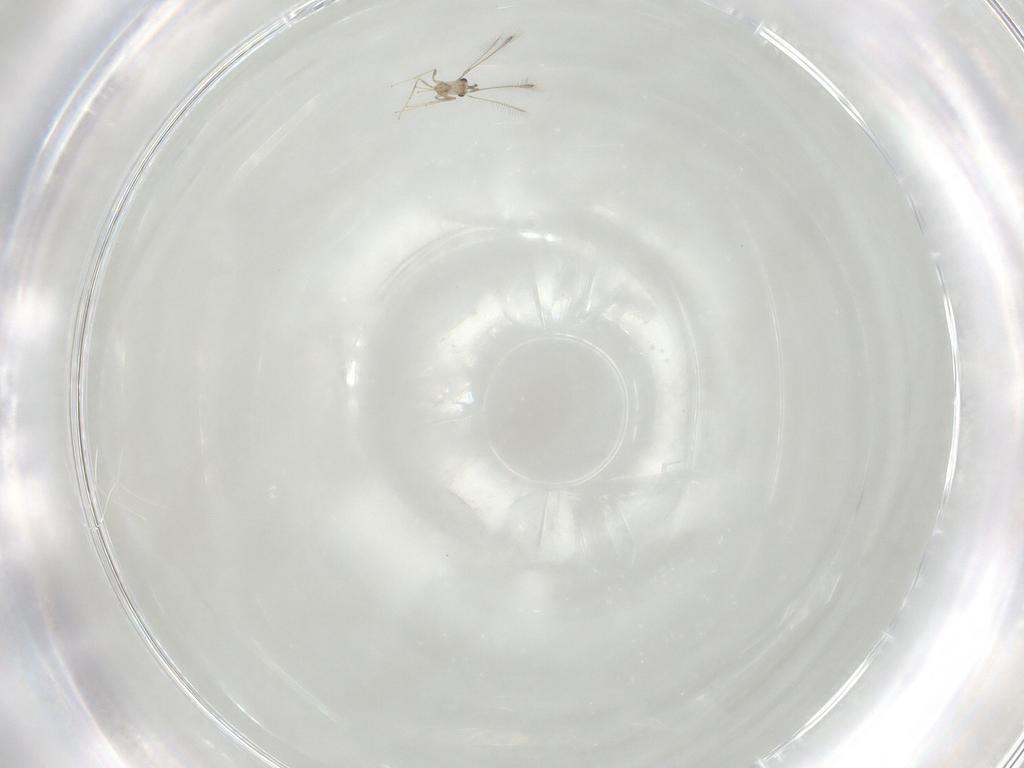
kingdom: Animalia
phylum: Arthropoda
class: Insecta
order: Hymenoptera
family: Mymaridae
